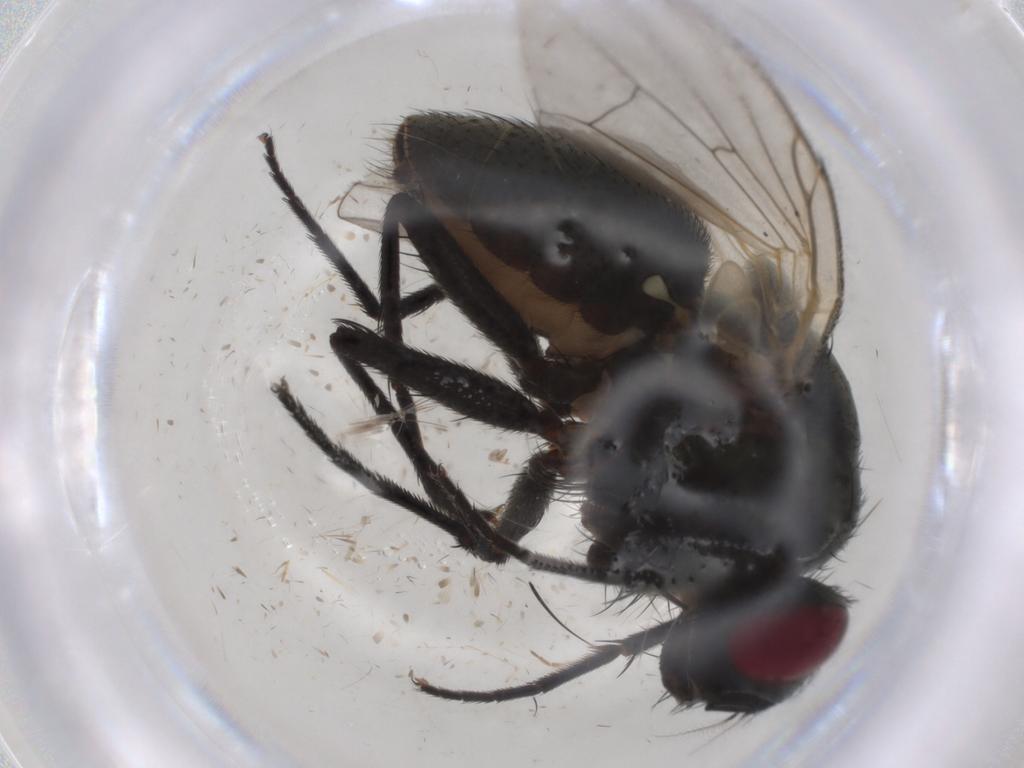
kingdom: Animalia
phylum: Arthropoda
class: Insecta
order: Diptera
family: Muscidae
